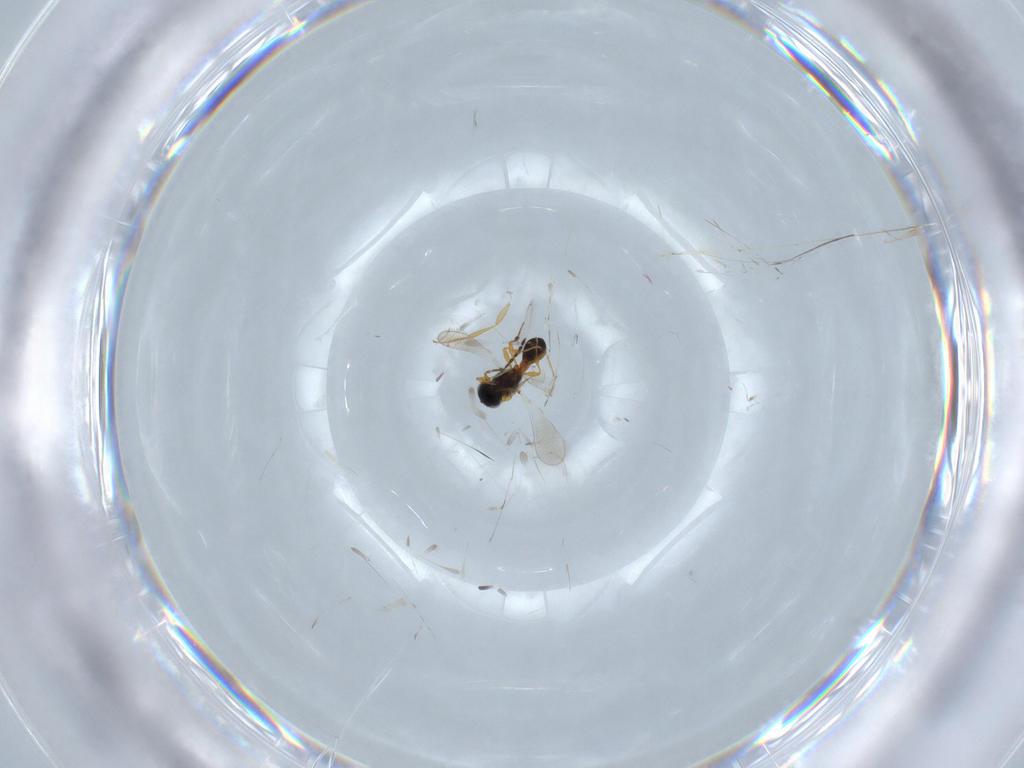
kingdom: Animalia
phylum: Arthropoda
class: Insecta
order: Hymenoptera
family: Platygastridae
